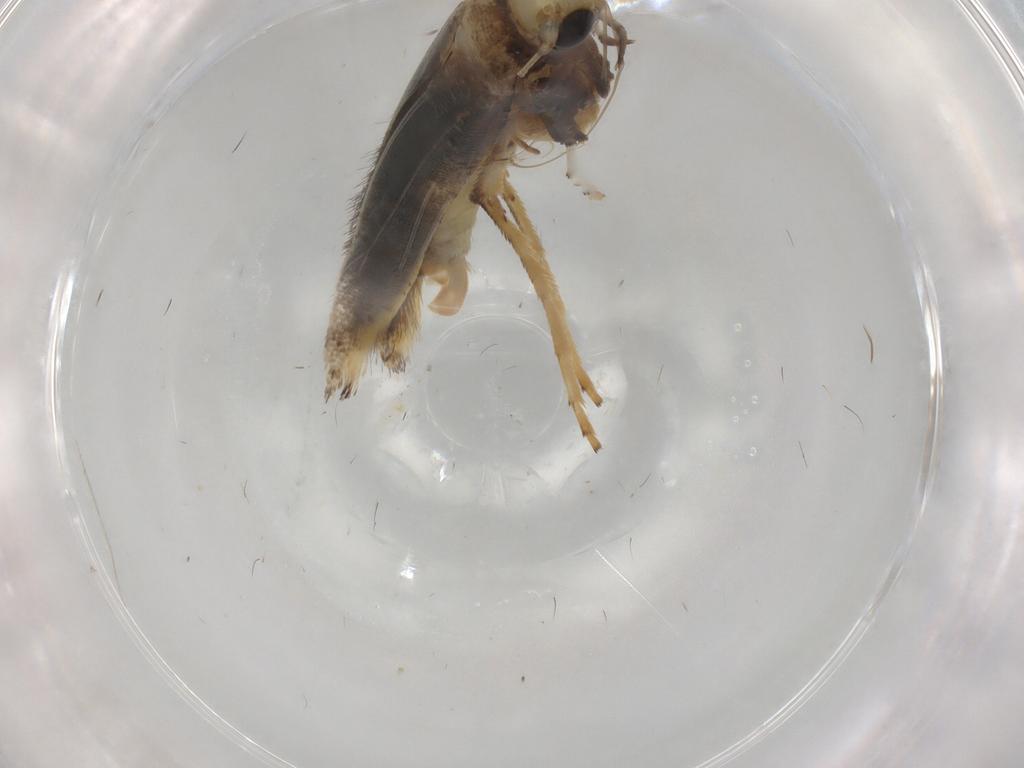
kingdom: Animalia
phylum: Arthropoda
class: Insecta
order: Lepidoptera
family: Gracillariidae
